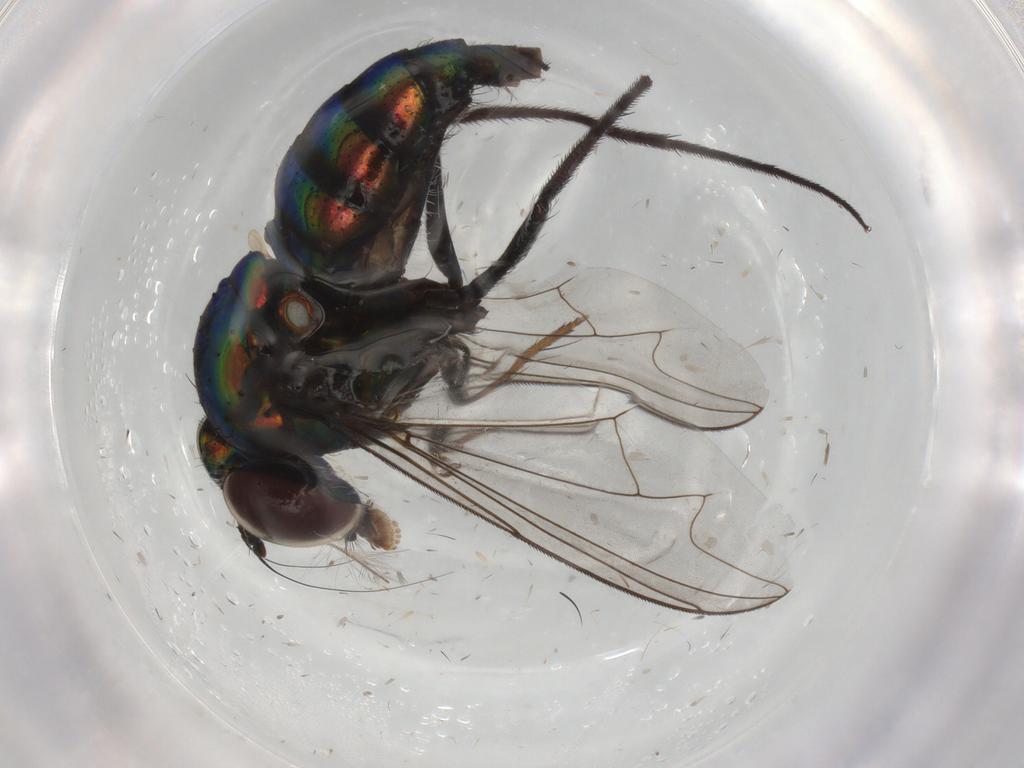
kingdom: Animalia
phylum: Arthropoda
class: Insecta
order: Diptera
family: Dolichopodidae
